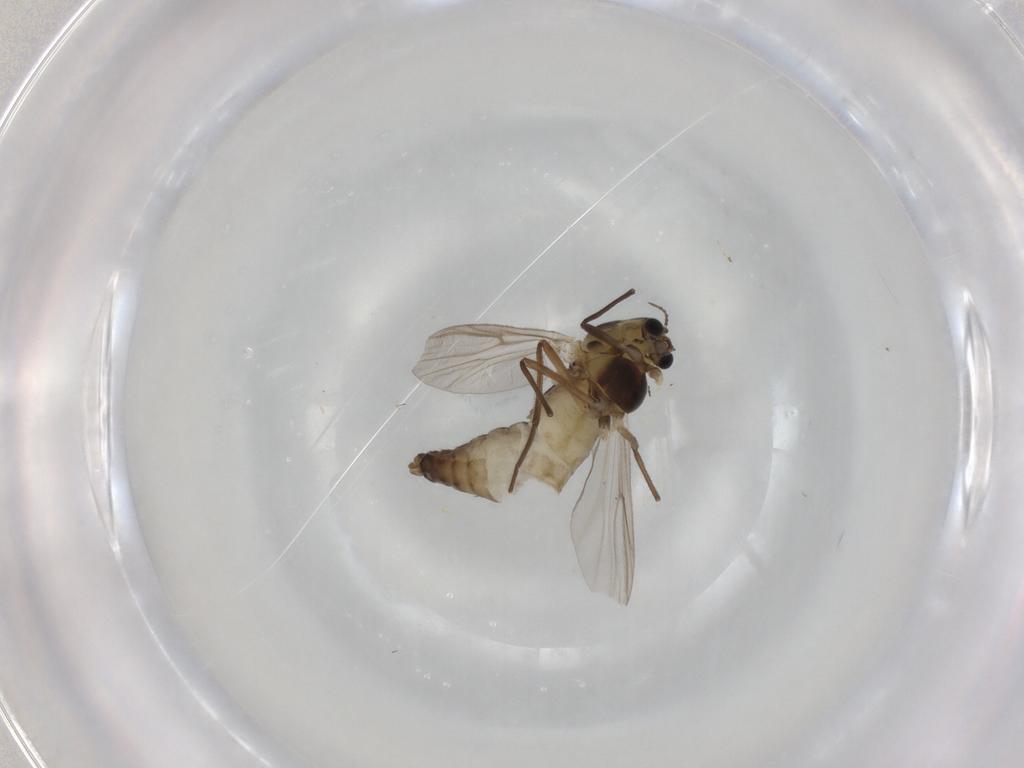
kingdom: Animalia
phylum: Arthropoda
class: Insecta
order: Diptera
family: Chironomidae
